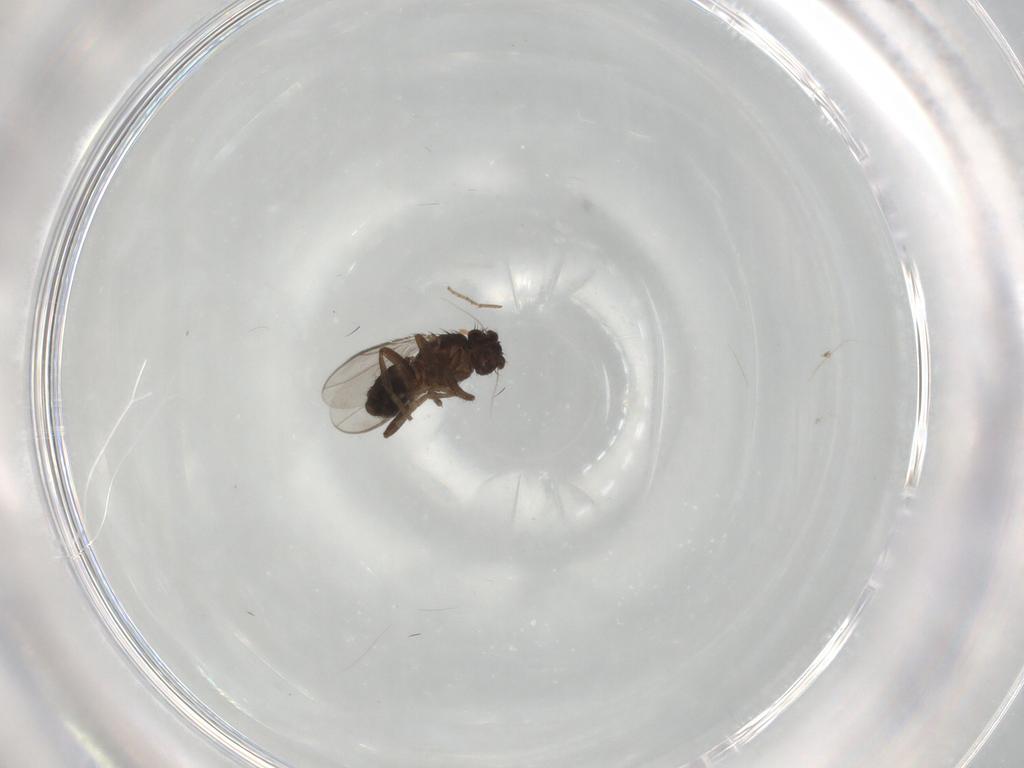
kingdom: Animalia
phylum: Arthropoda
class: Insecta
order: Diptera
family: Sphaeroceridae
